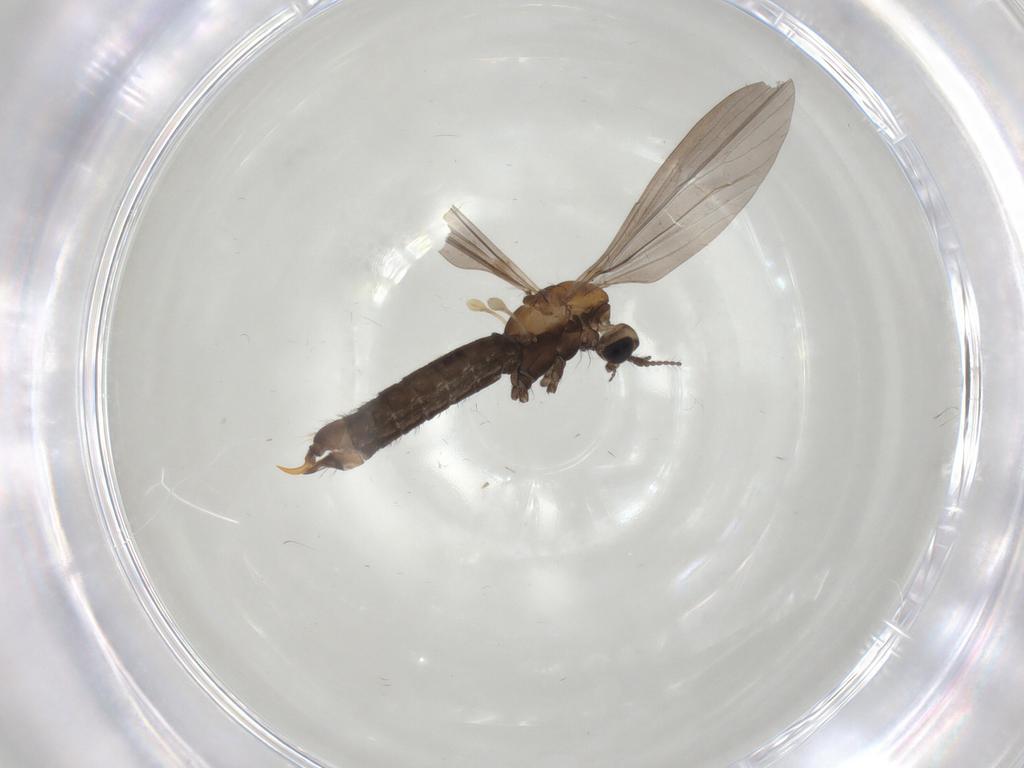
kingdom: Animalia
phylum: Arthropoda
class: Insecta
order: Diptera
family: Limoniidae
